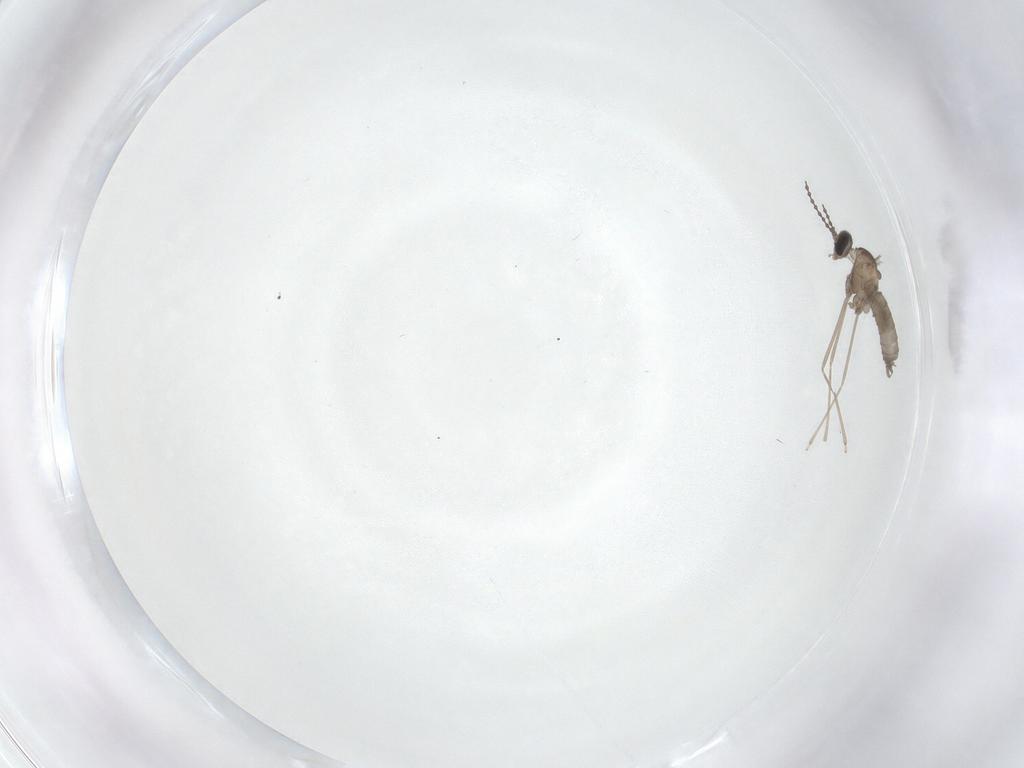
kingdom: Animalia
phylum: Arthropoda
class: Insecta
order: Diptera
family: Cecidomyiidae
